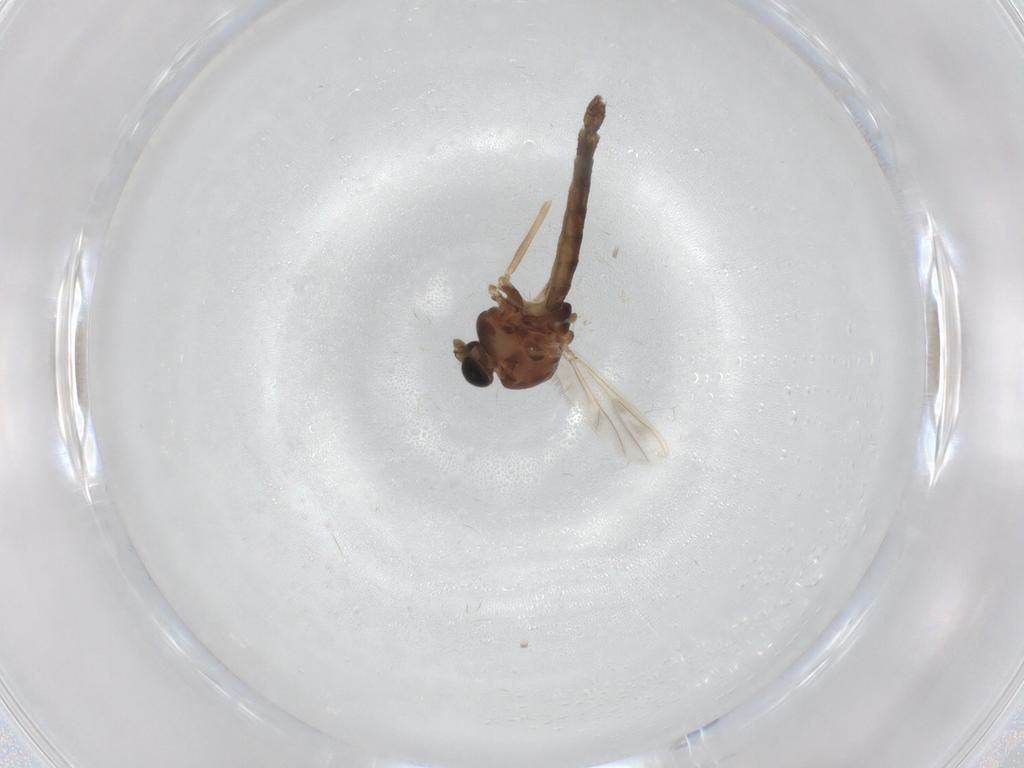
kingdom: Animalia
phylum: Arthropoda
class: Insecta
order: Diptera
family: Chironomidae
